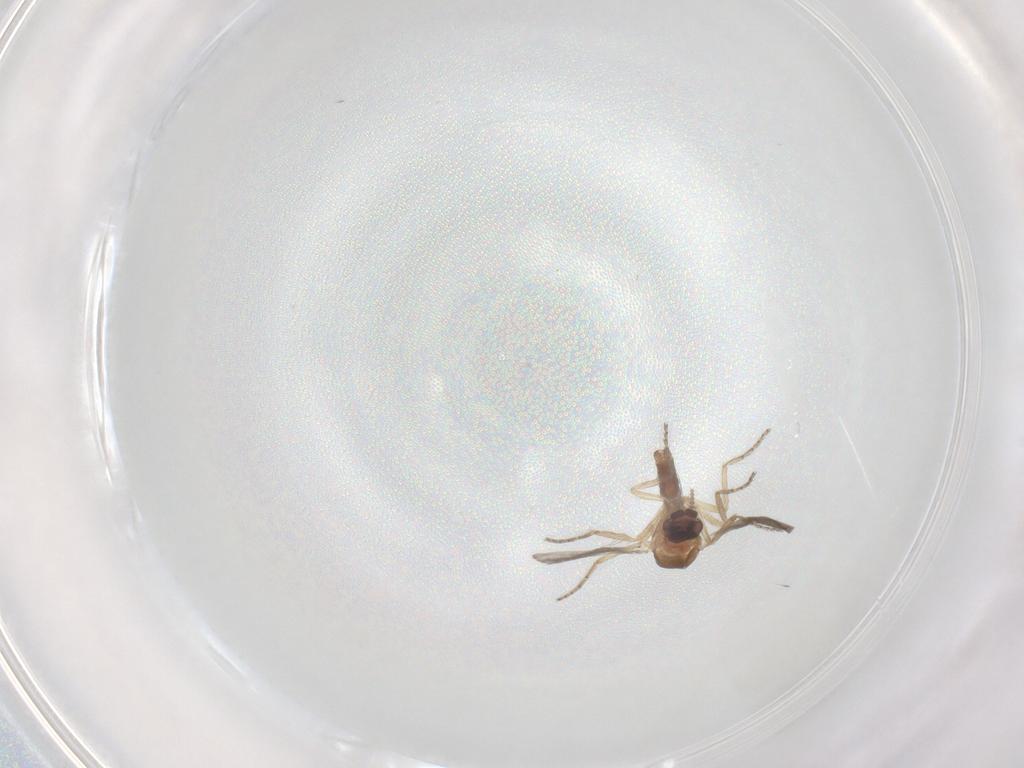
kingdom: Animalia
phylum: Arthropoda
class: Insecta
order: Diptera
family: Ceratopogonidae
